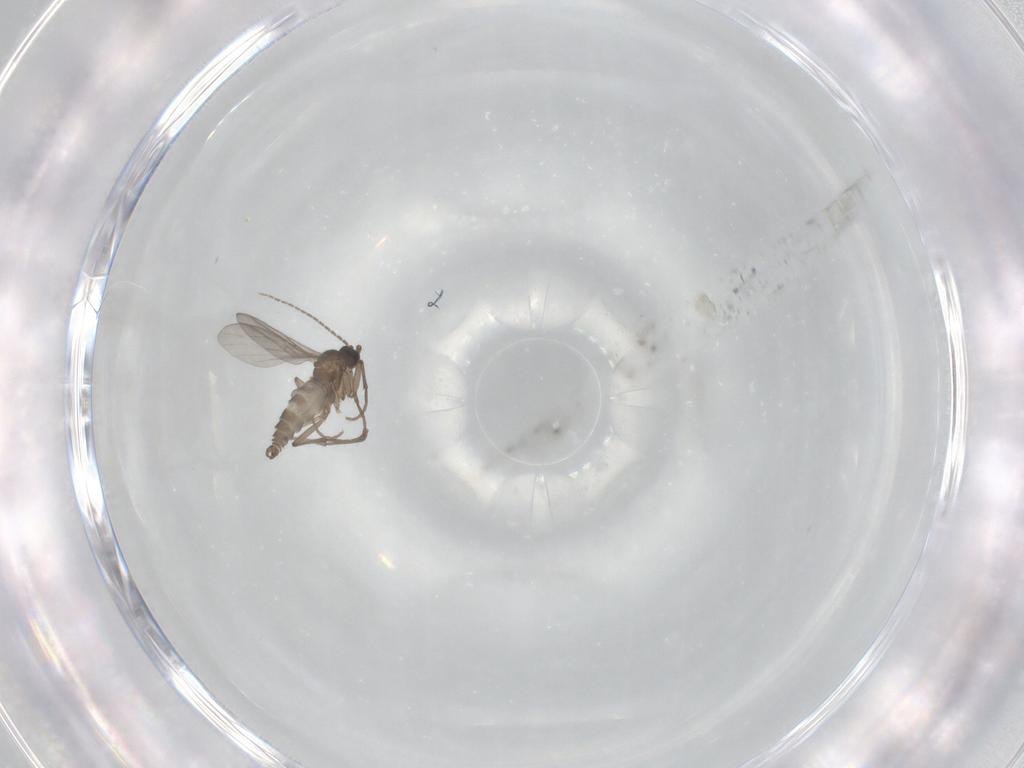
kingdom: Animalia
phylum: Arthropoda
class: Insecta
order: Diptera
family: Sciaridae
